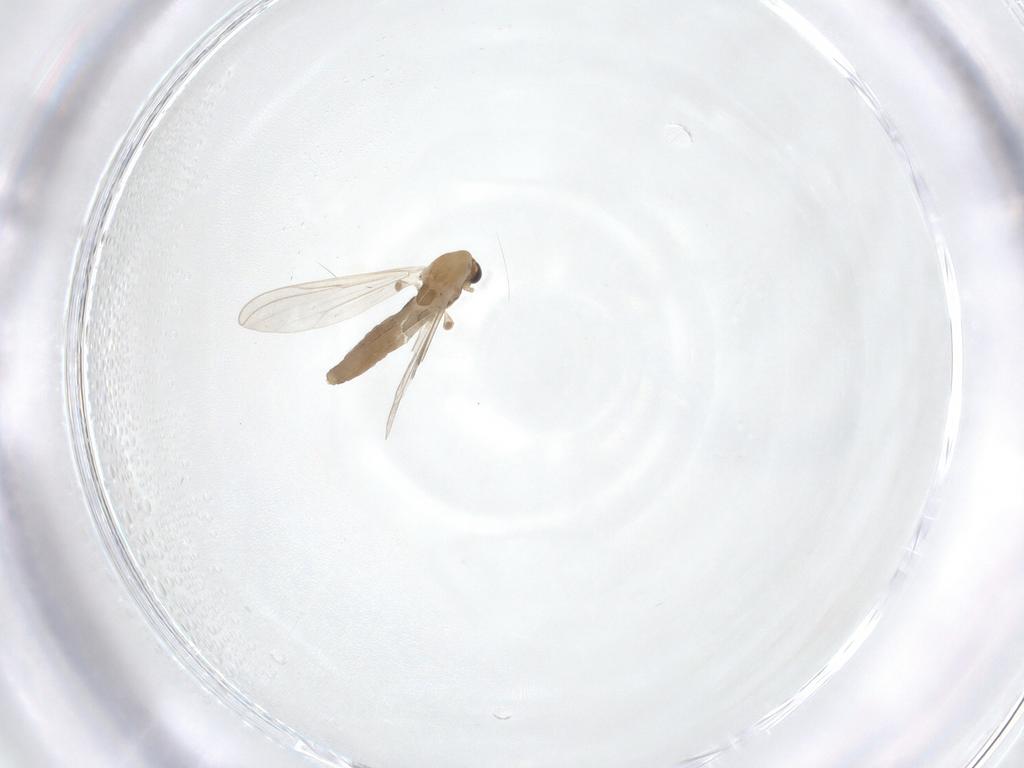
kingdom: Animalia
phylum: Arthropoda
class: Insecta
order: Diptera
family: Chironomidae
